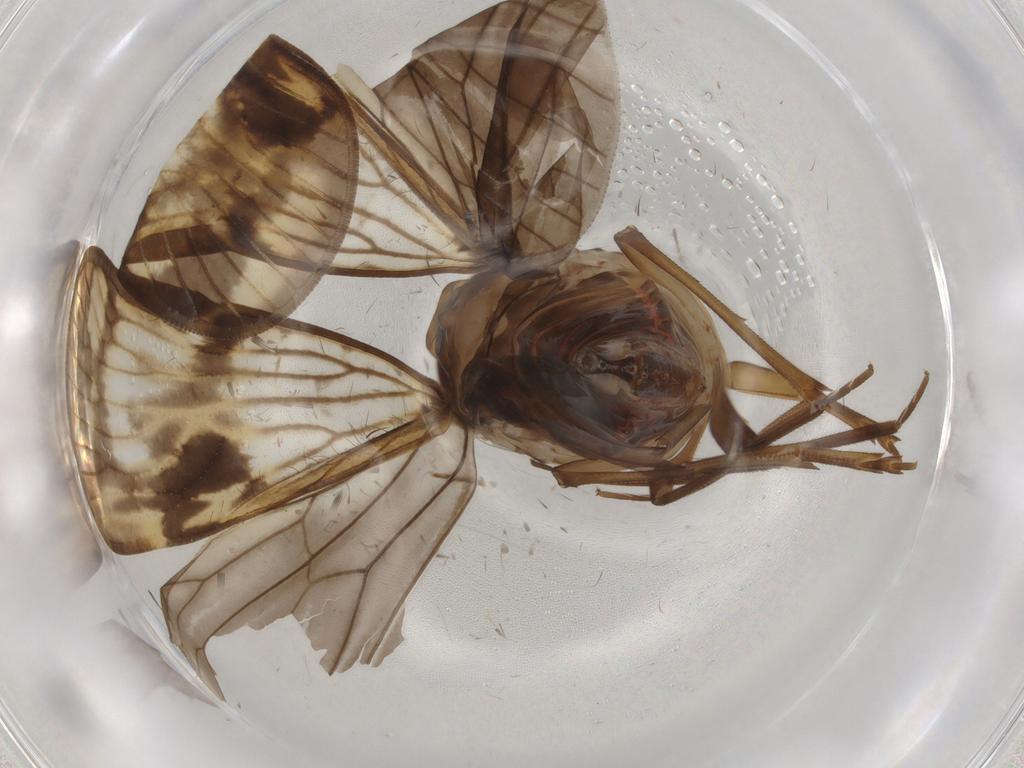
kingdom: Animalia
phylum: Arthropoda
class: Insecta
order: Hemiptera
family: Cixiidae
